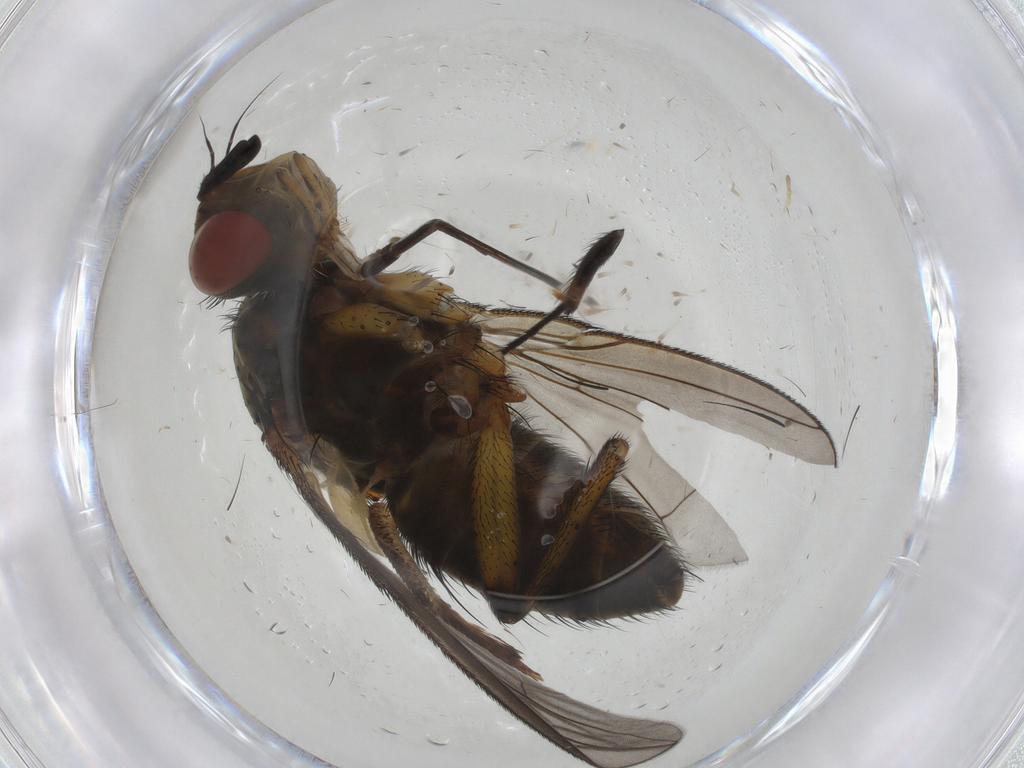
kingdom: Animalia
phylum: Arthropoda
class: Insecta
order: Diptera
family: Tachinidae
